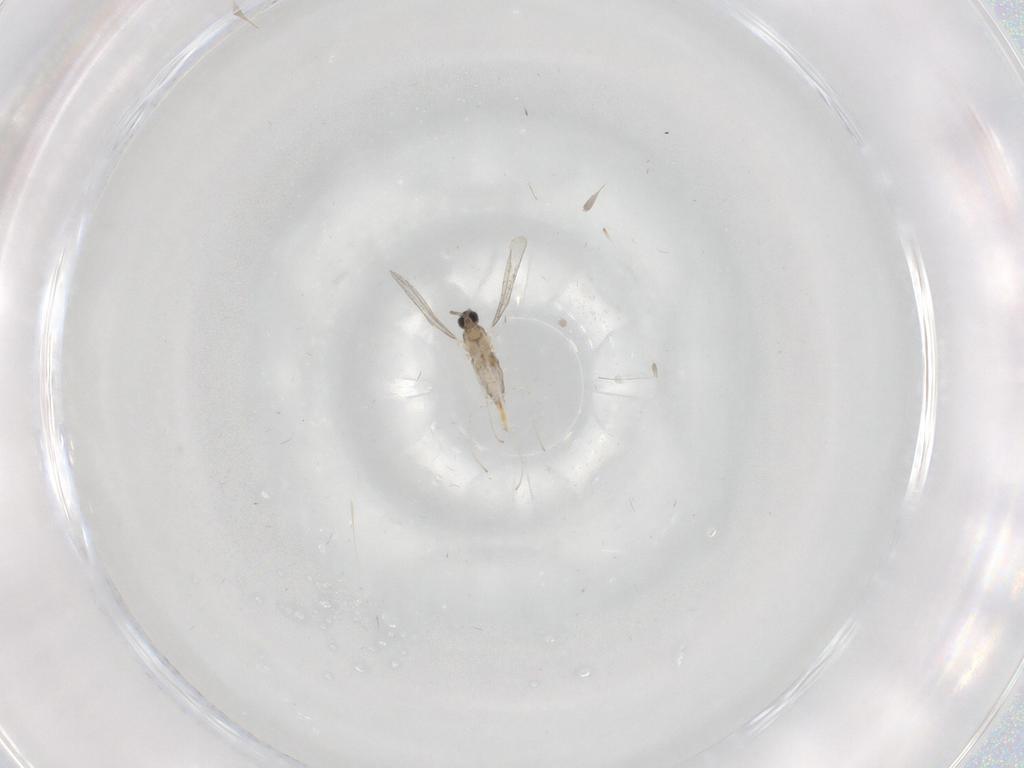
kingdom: Animalia
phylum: Arthropoda
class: Insecta
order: Diptera
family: Cecidomyiidae
